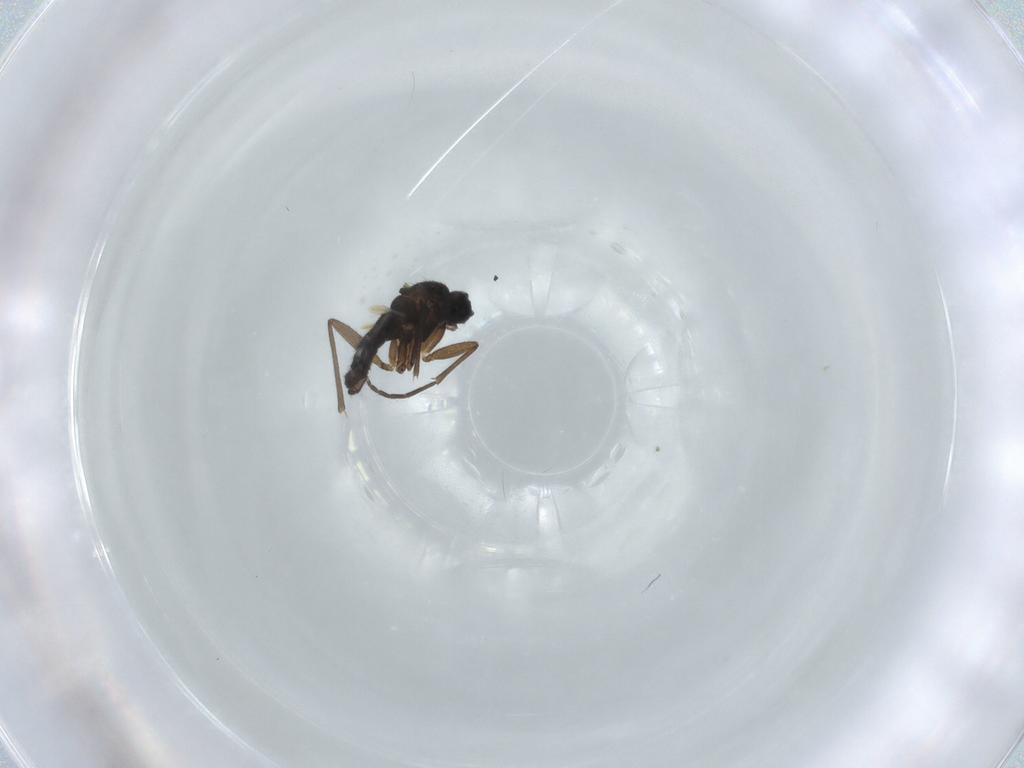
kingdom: Animalia
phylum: Arthropoda
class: Insecta
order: Diptera
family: Sciaridae
